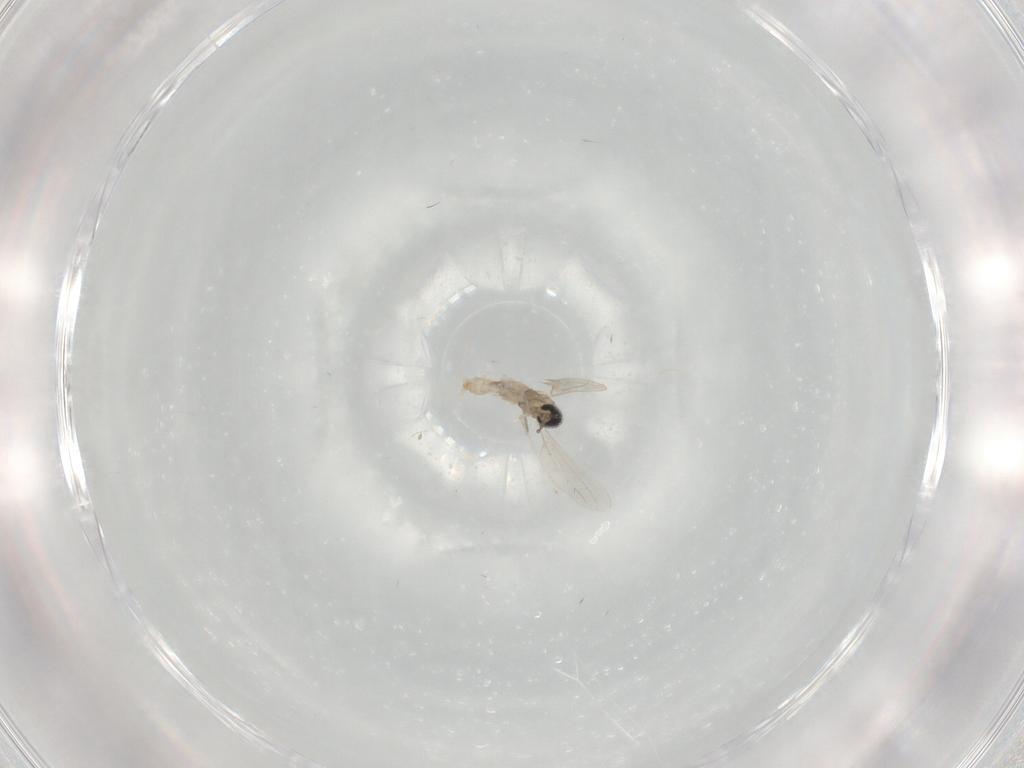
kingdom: Animalia
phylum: Arthropoda
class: Insecta
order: Diptera
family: Cecidomyiidae
